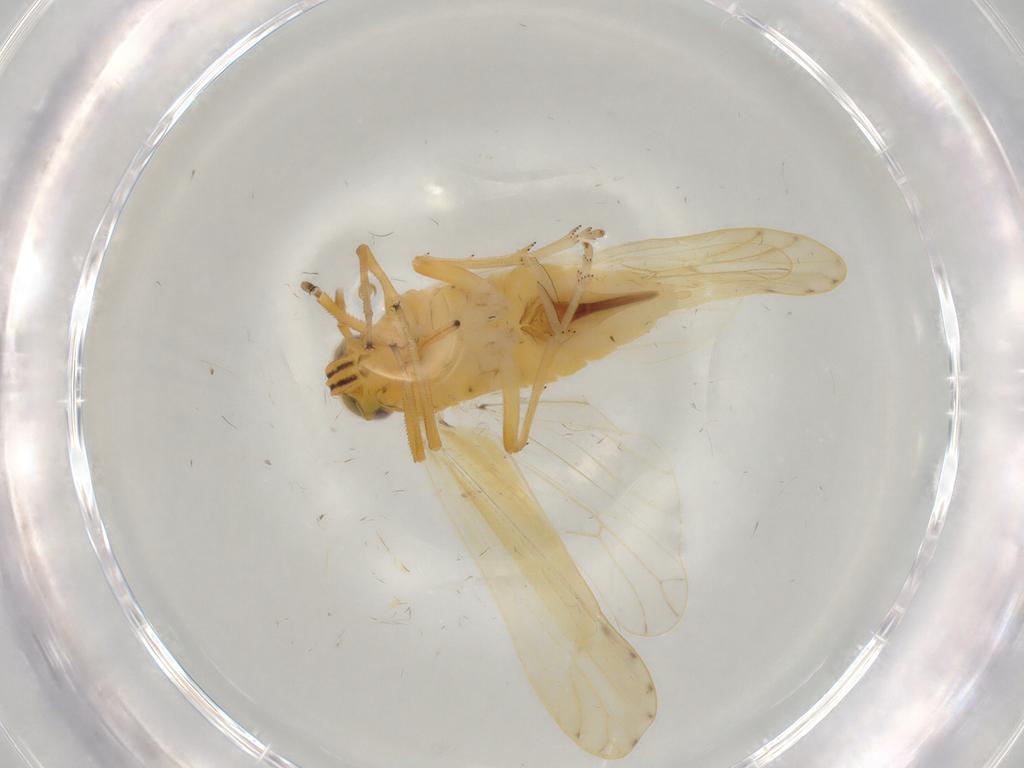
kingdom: Animalia
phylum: Arthropoda
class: Insecta
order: Hemiptera
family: Delphacidae
